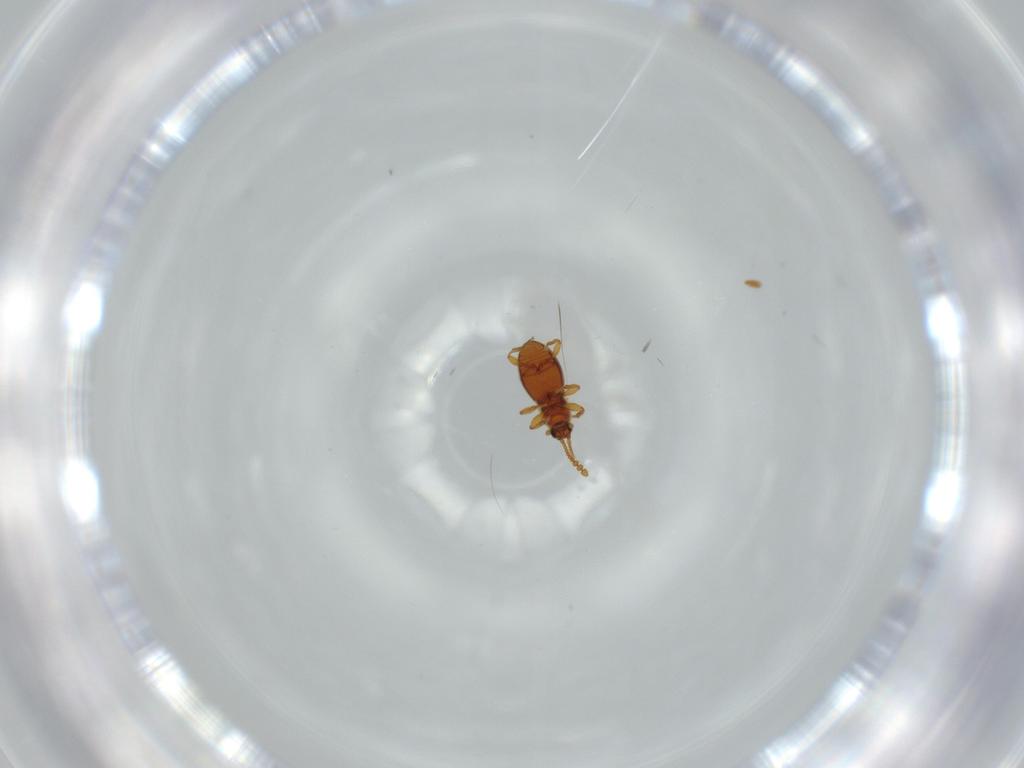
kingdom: Animalia
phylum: Arthropoda
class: Insecta
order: Coleoptera
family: Staphylinidae
